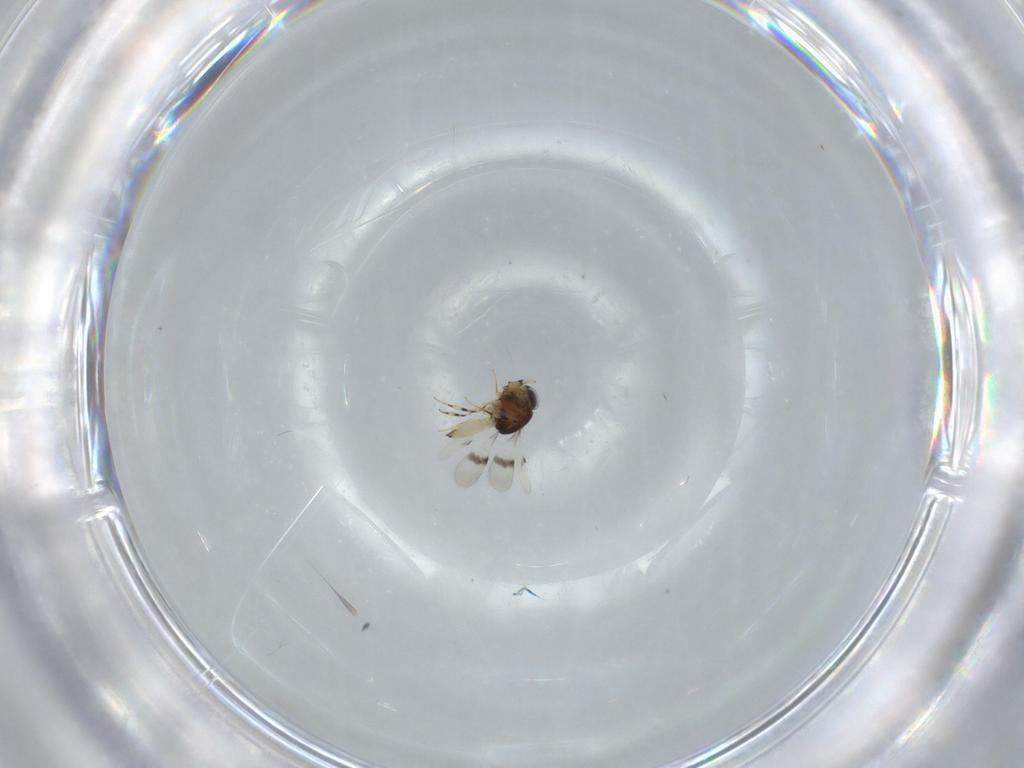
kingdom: Animalia
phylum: Arthropoda
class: Insecta
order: Hymenoptera
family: Scelionidae
